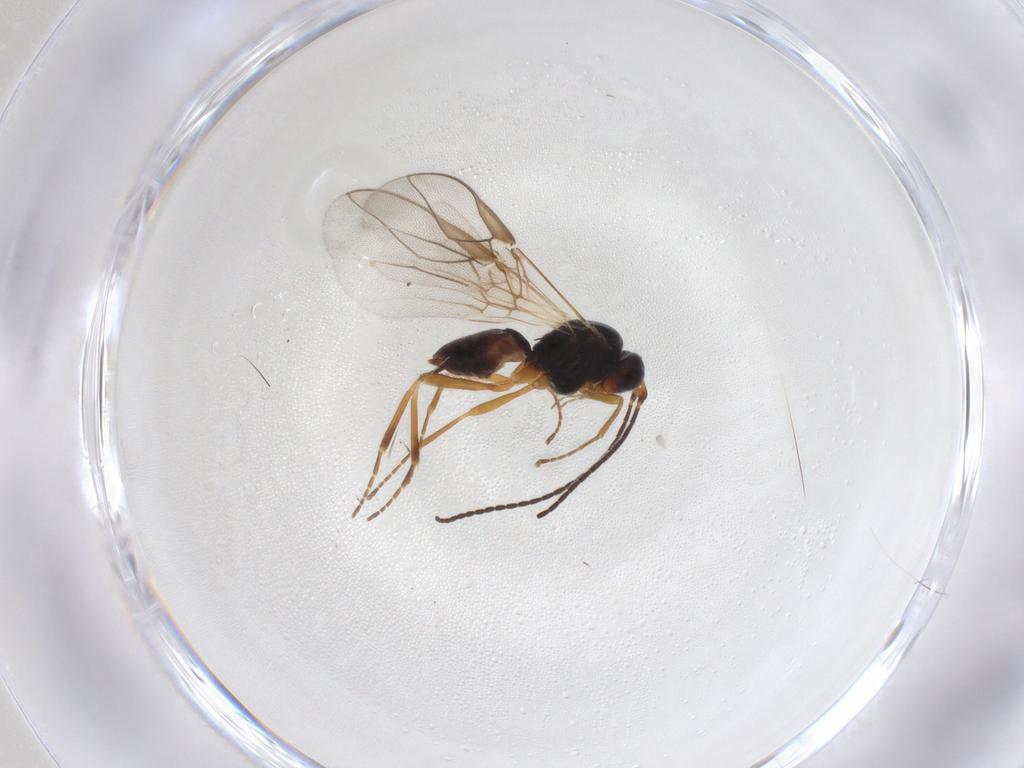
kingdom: Animalia
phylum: Arthropoda
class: Insecta
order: Hymenoptera
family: Braconidae
